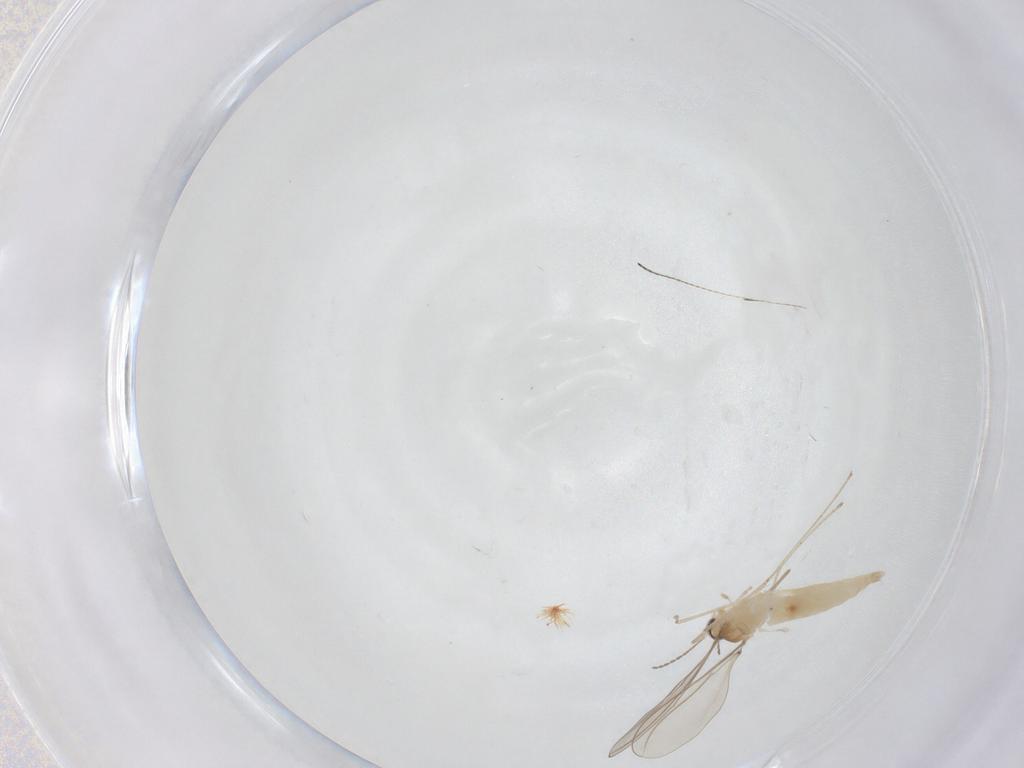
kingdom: Animalia
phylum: Arthropoda
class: Insecta
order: Diptera
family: Cecidomyiidae
